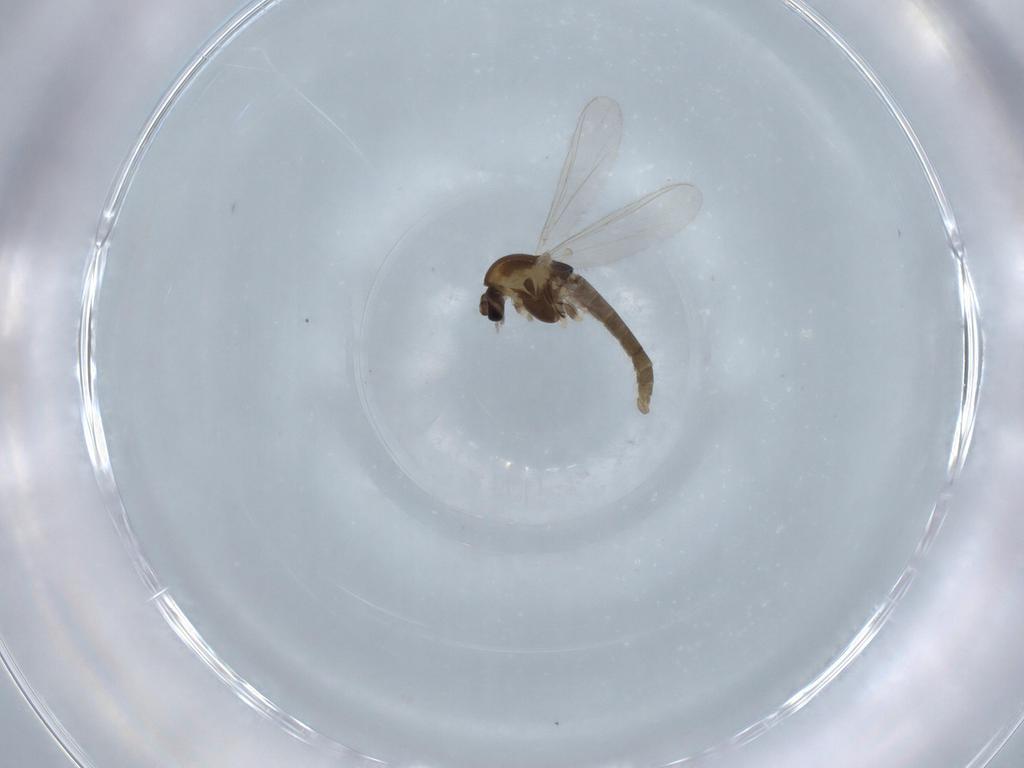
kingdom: Animalia
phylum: Arthropoda
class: Insecta
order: Diptera
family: Chironomidae
